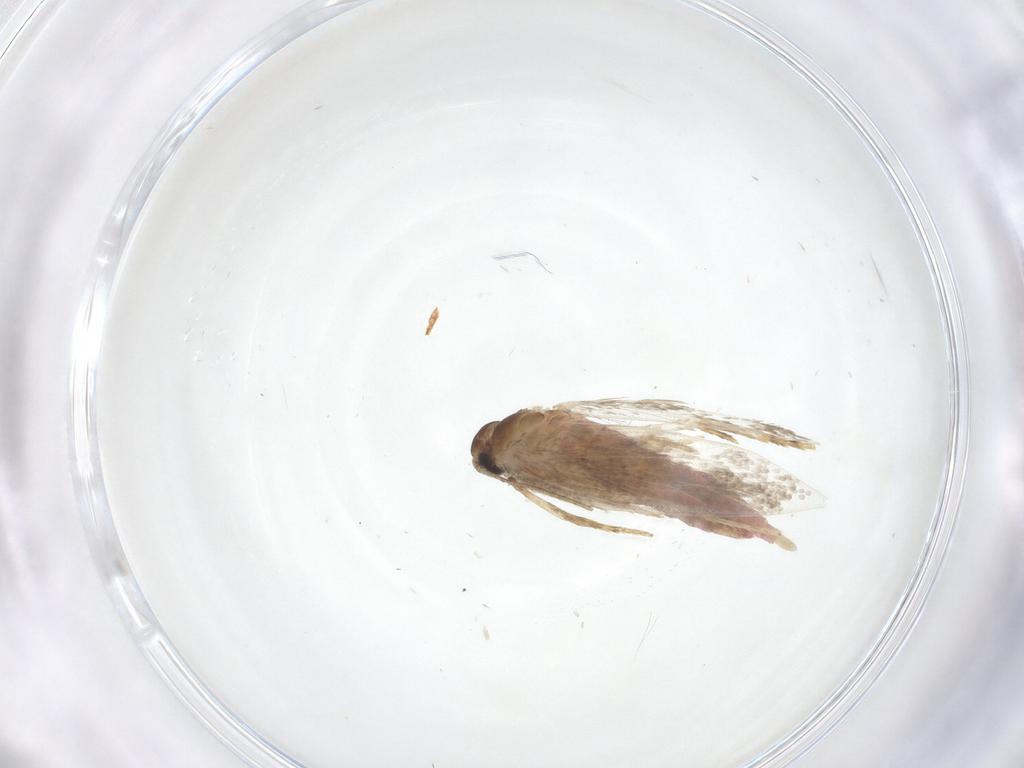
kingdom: Animalia
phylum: Arthropoda
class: Insecta
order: Lepidoptera
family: Gelechiidae
